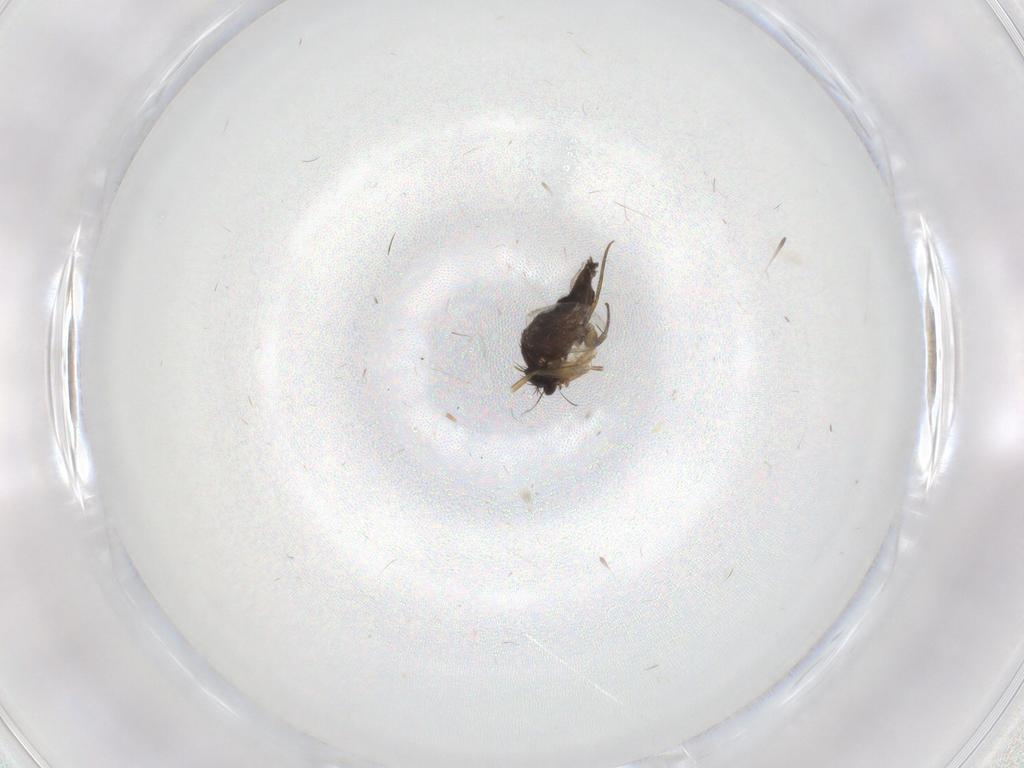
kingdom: Animalia
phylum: Arthropoda
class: Insecta
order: Diptera
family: Phoridae
